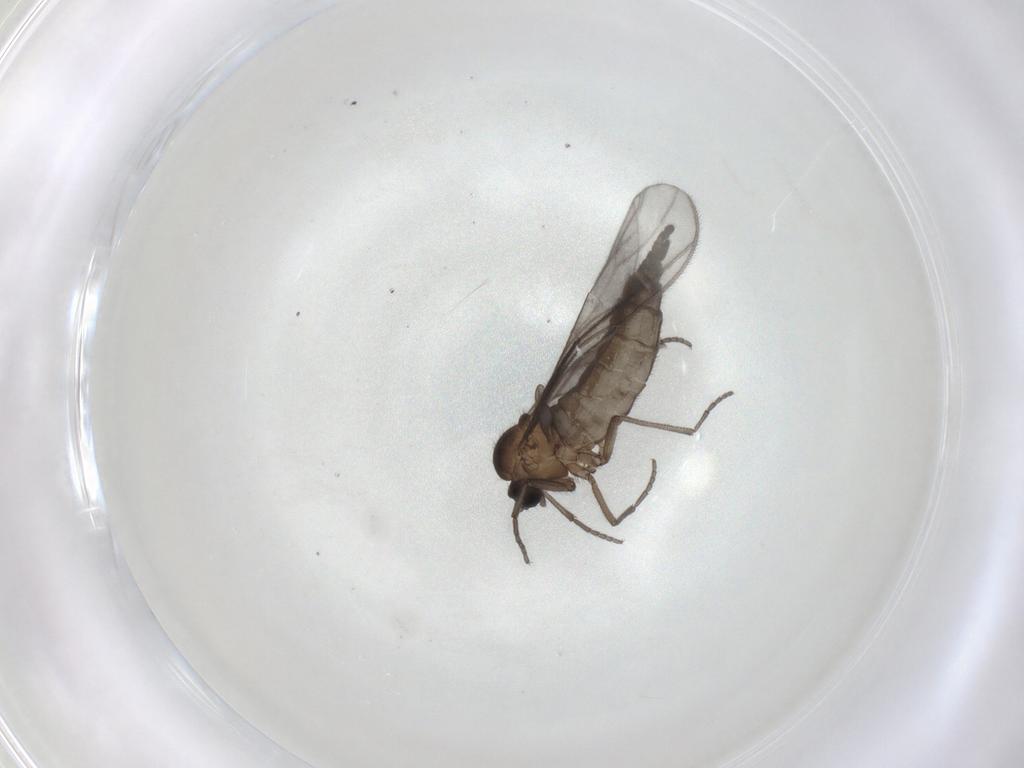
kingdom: Animalia
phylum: Arthropoda
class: Insecta
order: Diptera
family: Sciaridae
